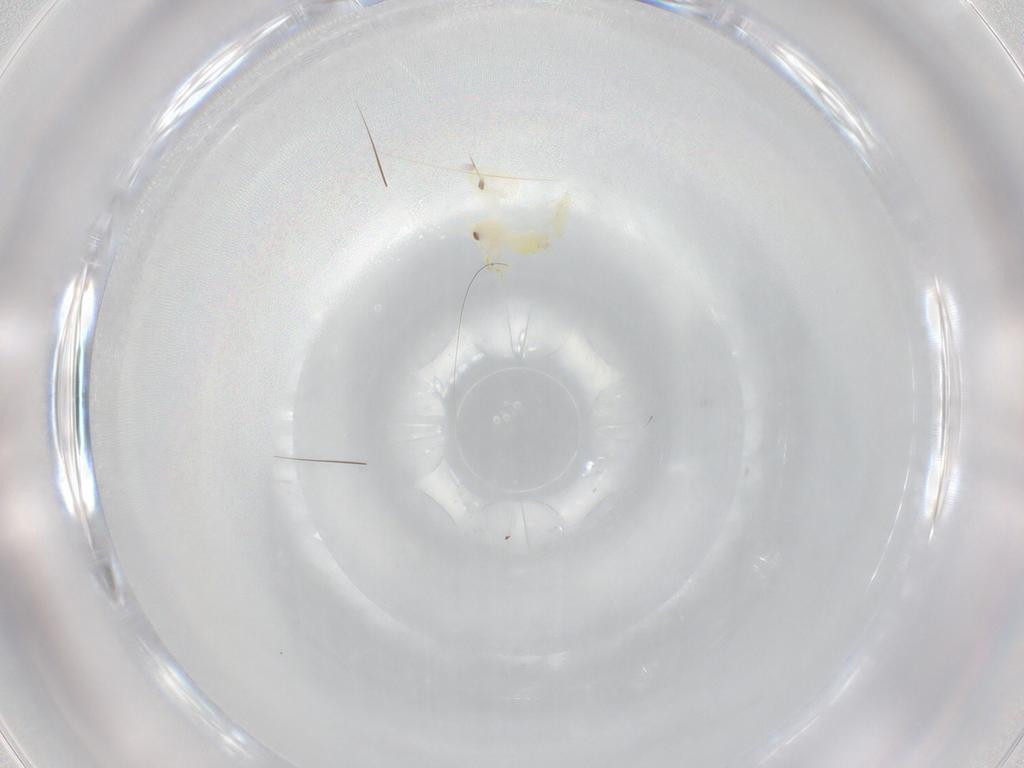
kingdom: Animalia
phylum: Arthropoda
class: Insecta
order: Hemiptera
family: Aleyrodidae
